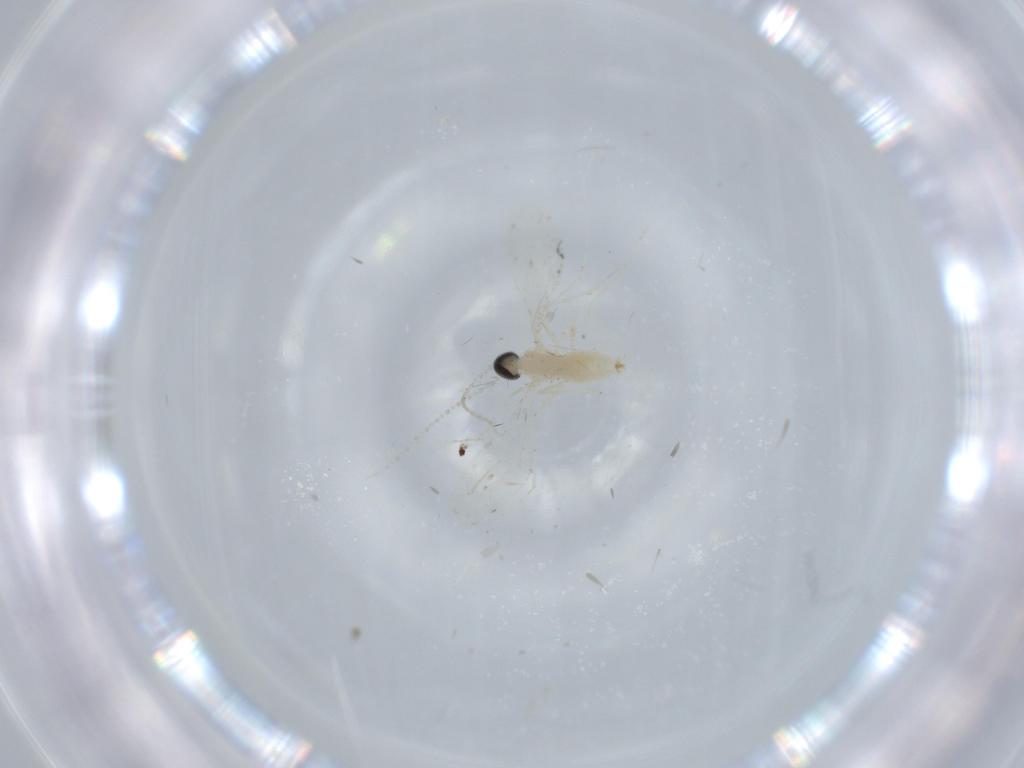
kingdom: Animalia
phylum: Arthropoda
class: Insecta
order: Diptera
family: Cecidomyiidae
